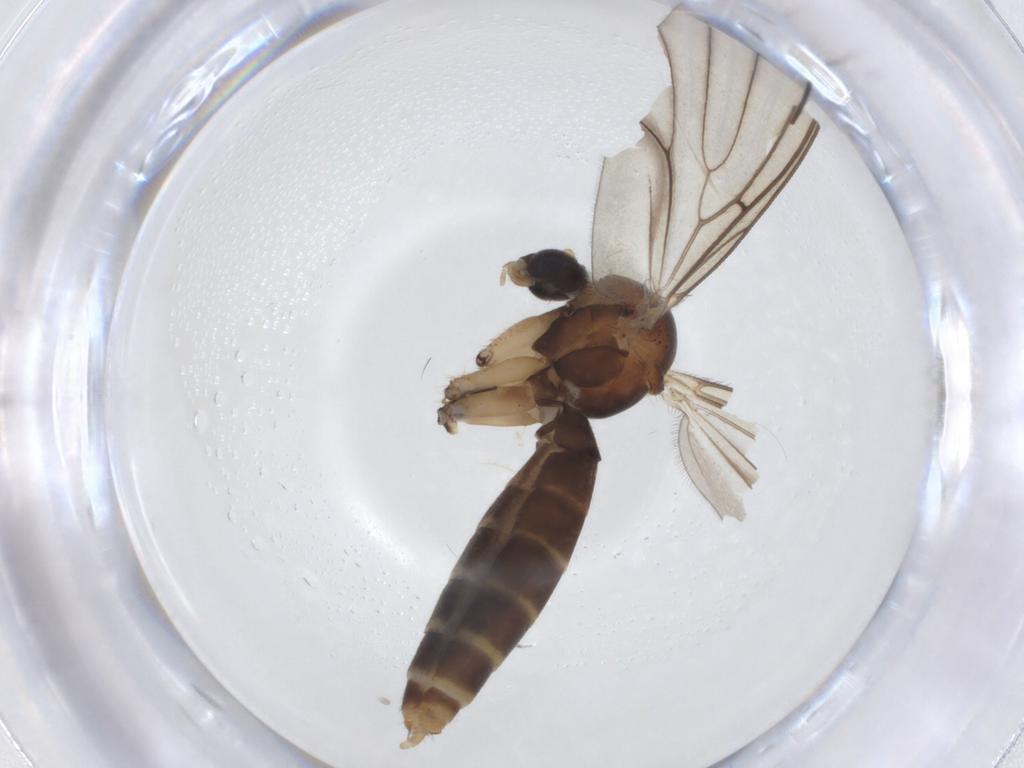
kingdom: Animalia
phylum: Arthropoda
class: Insecta
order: Diptera
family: Mycetophilidae
